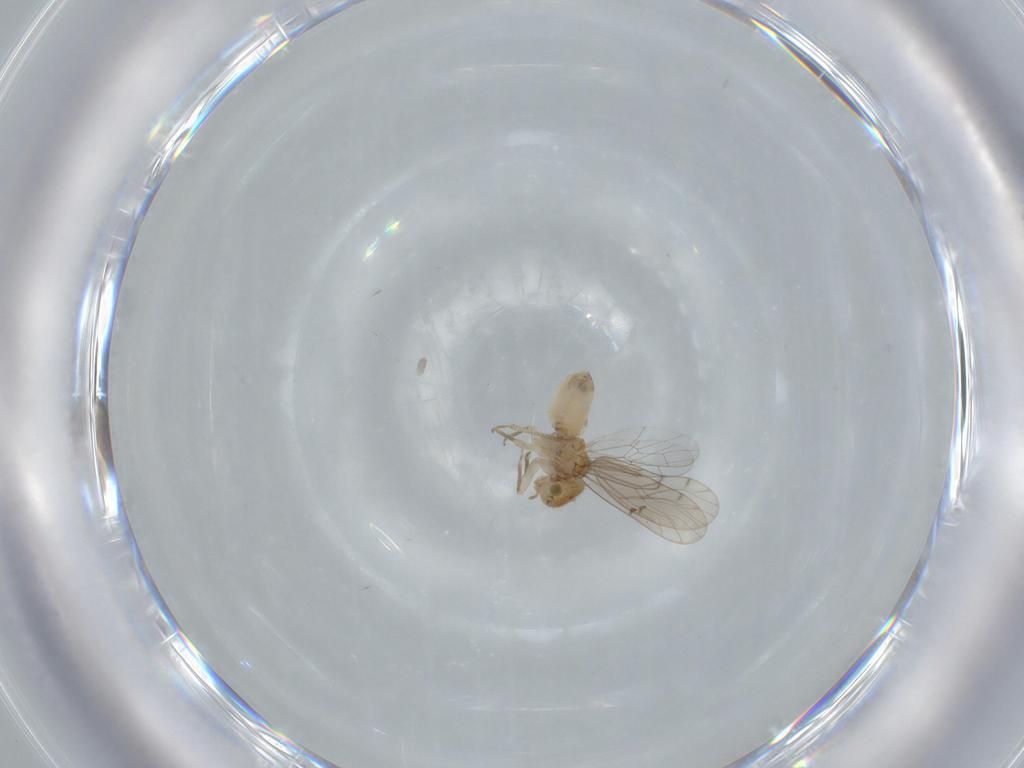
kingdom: Animalia
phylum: Arthropoda
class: Insecta
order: Psocodea
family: Ectopsocidae
